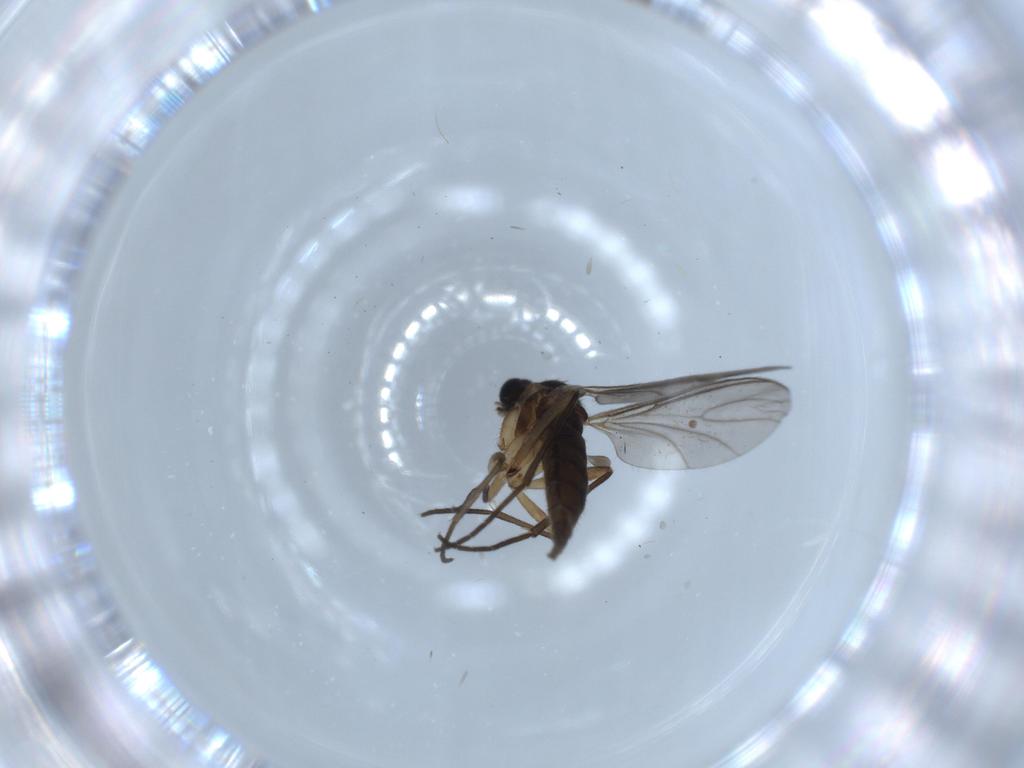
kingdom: Animalia
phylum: Arthropoda
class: Insecta
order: Diptera
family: Sciaridae
